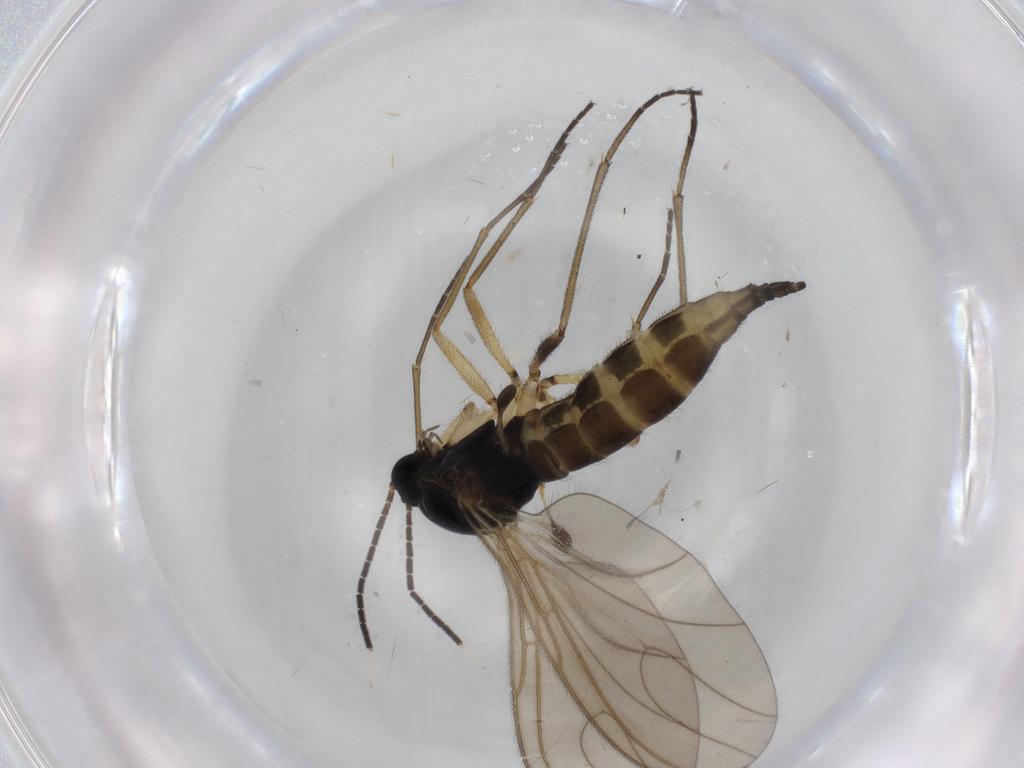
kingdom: Animalia
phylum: Arthropoda
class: Insecta
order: Diptera
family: Sciaridae
